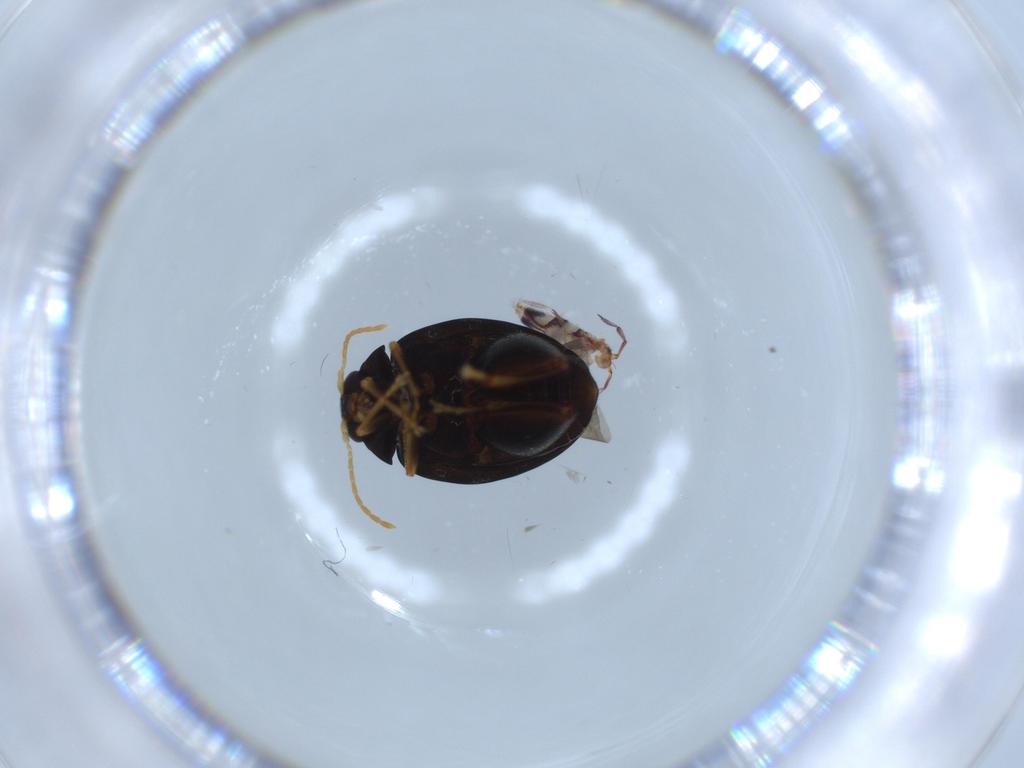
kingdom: Animalia
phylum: Arthropoda
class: Insecta
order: Coleoptera
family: Chrysomelidae
